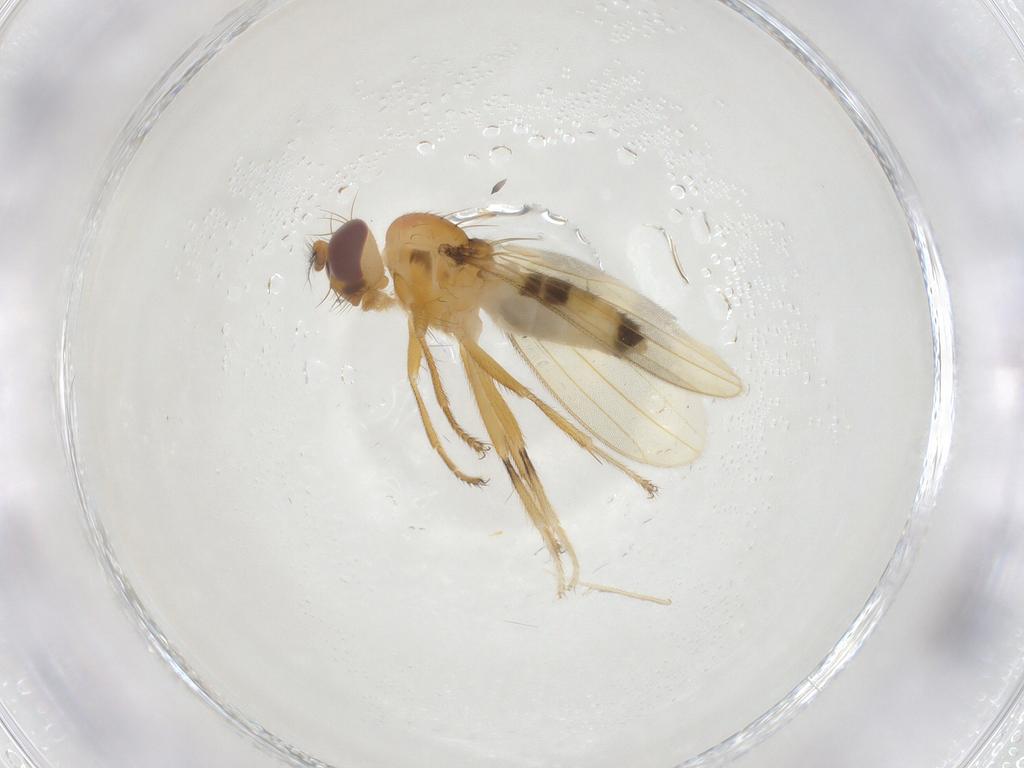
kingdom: Animalia
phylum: Arthropoda
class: Insecta
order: Diptera
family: Periscelididae
